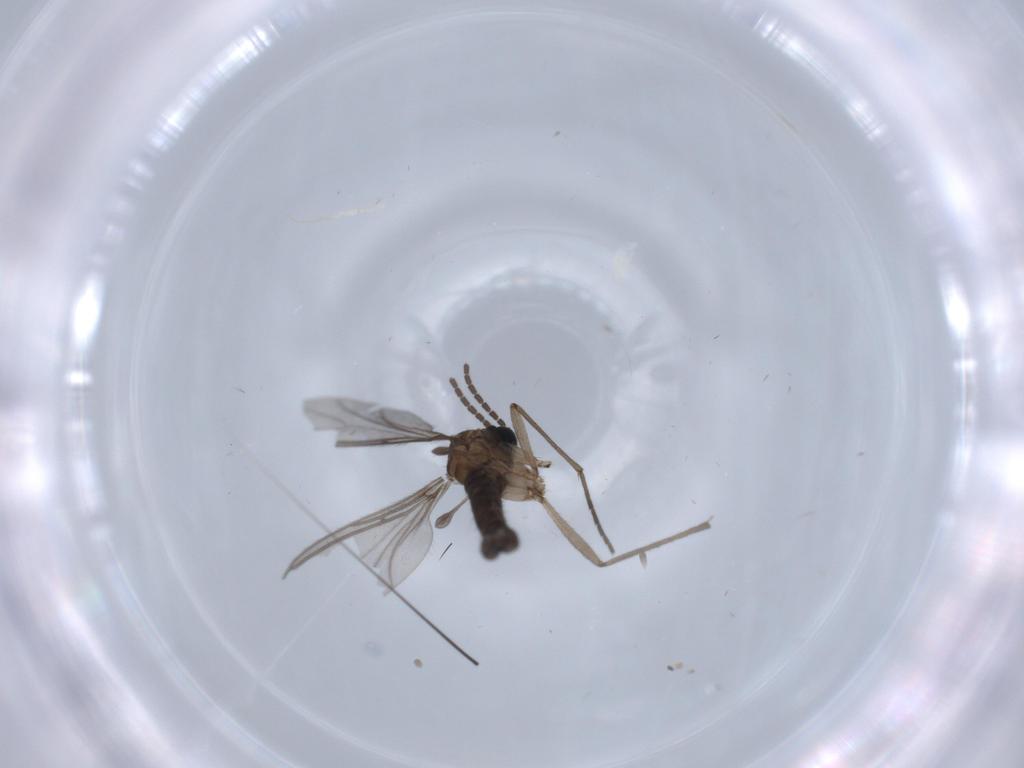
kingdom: Animalia
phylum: Arthropoda
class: Insecta
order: Diptera
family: Sciaridae
